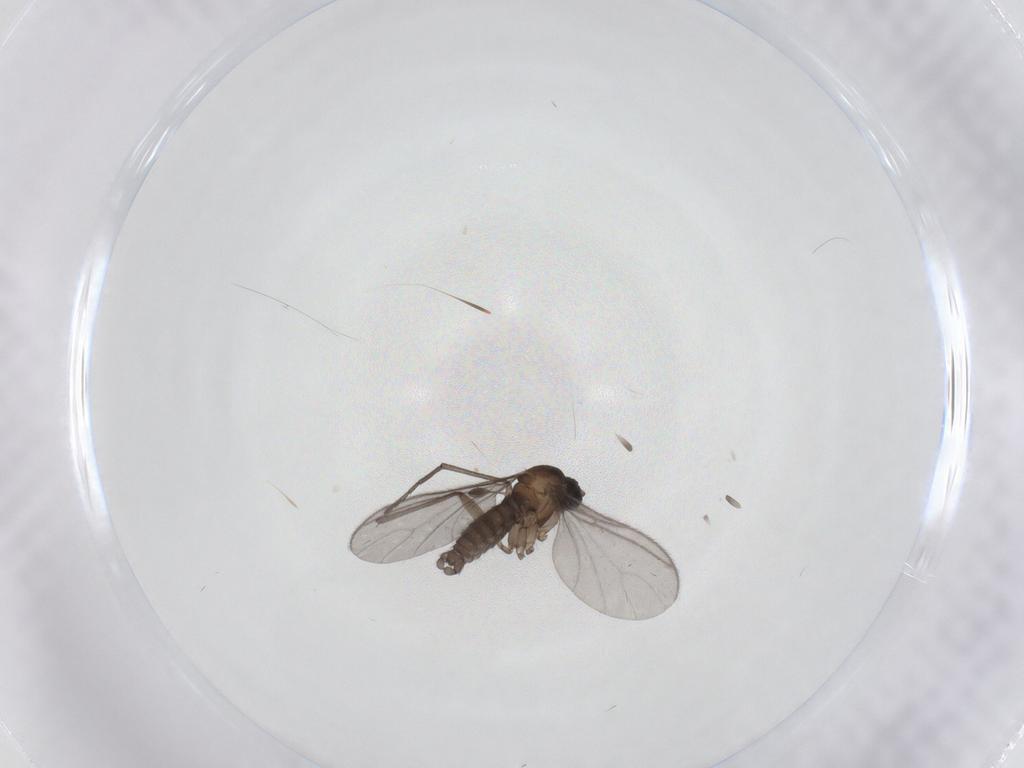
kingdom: Animalia
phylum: Arthropoda
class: Insecta
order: Diptera
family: Sciaridae
